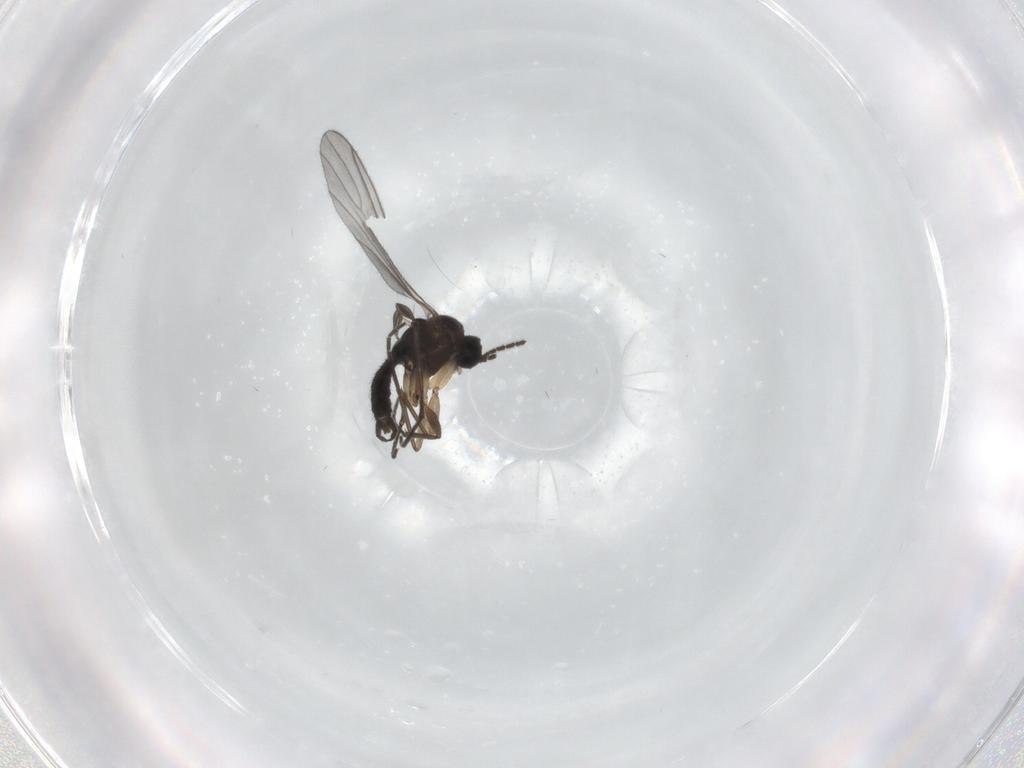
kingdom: Animalia
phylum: Arthropoda
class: Insecta
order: Diptera
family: Sciaridae
